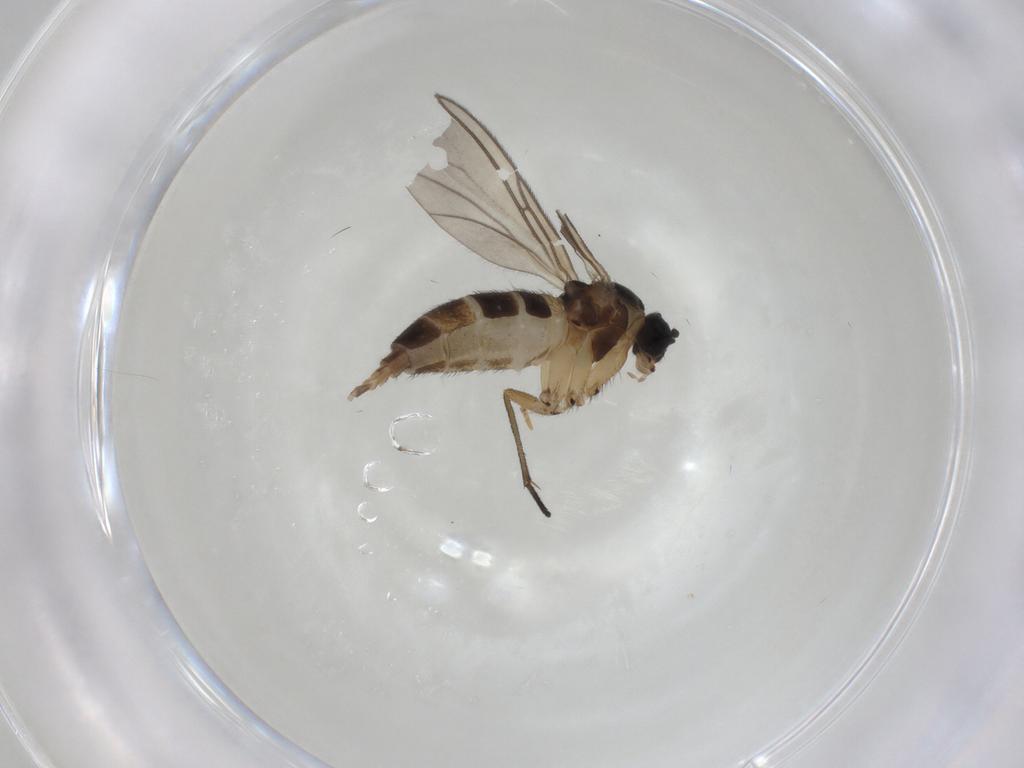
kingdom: Animalia
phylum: Arthropoda
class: Insecta
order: Diptera
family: Sciaridae
